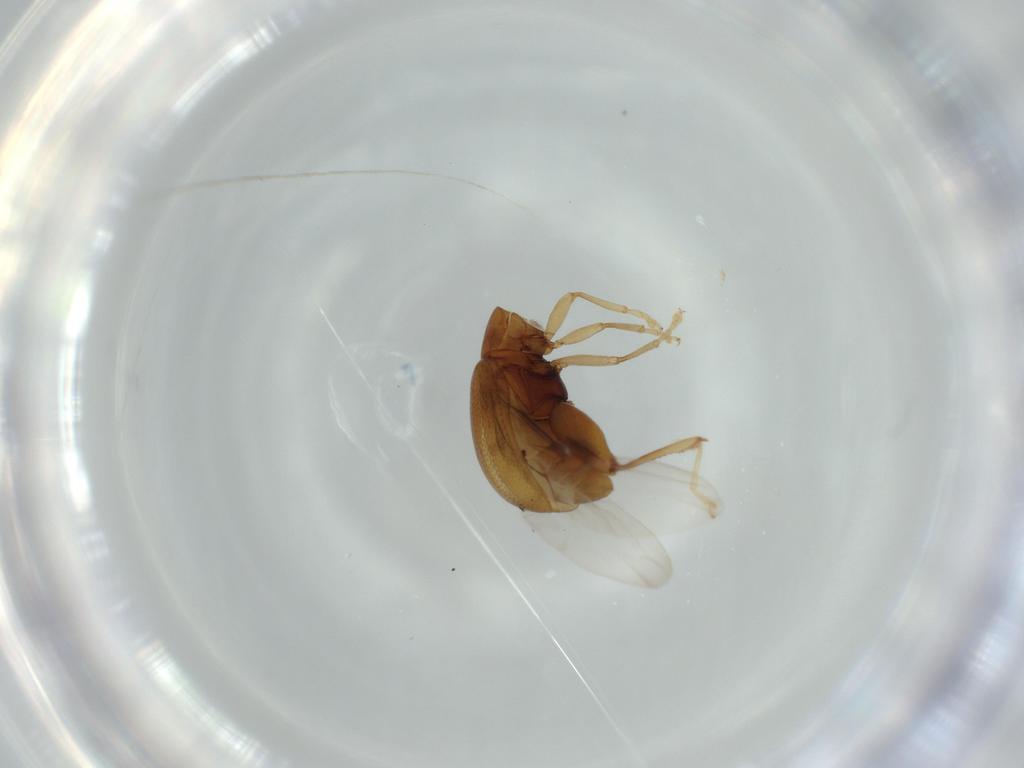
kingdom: Animalia
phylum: Arthropoda
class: Insecta
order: Coleoptera
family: Chrysomelidae
